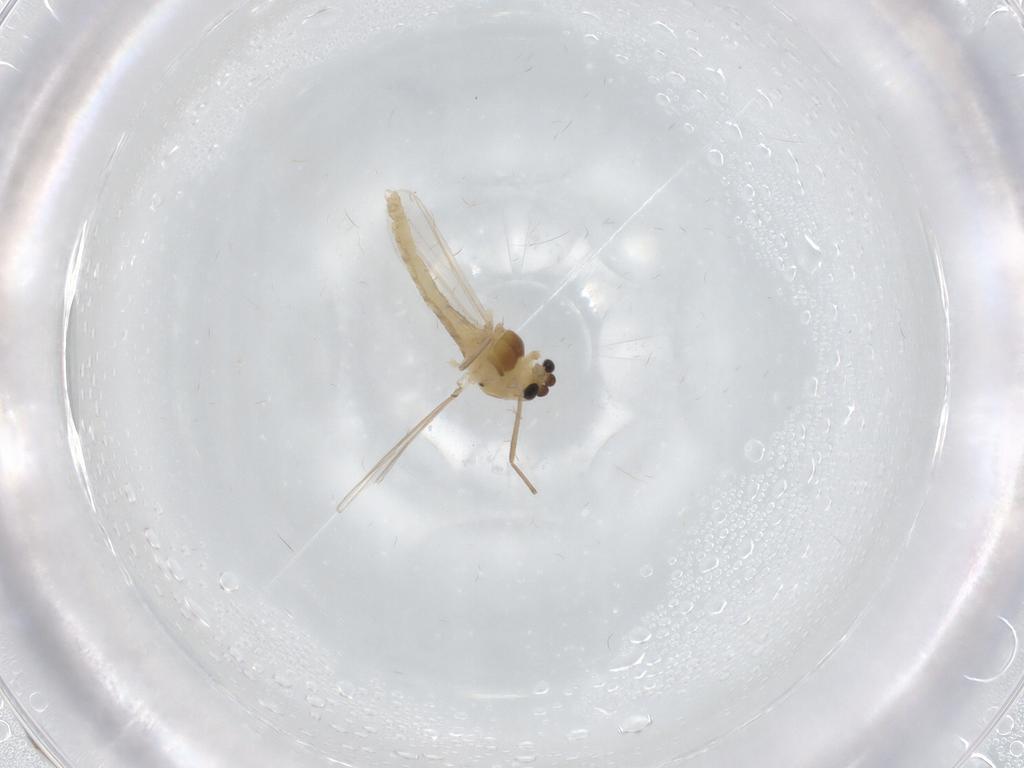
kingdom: Animalia
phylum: Arthropoda
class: Insecta
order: Diptera
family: Chironomidae
